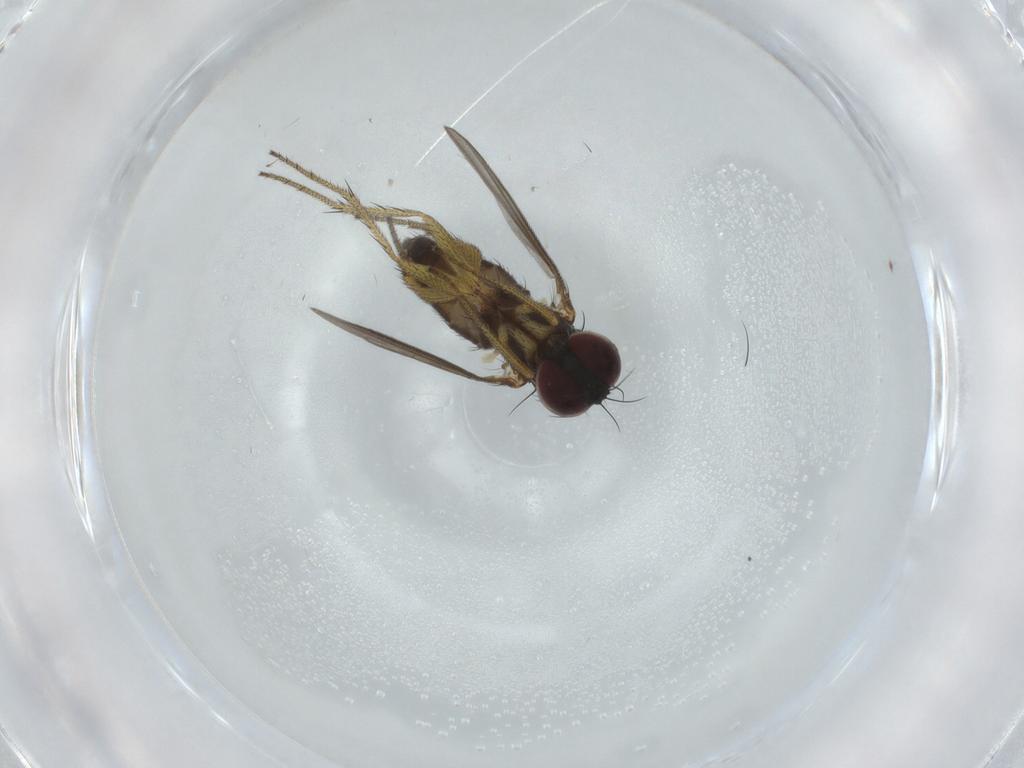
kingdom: Animalia
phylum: Arthropoda
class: Insecta
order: Diptera
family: Dolichopodidae
